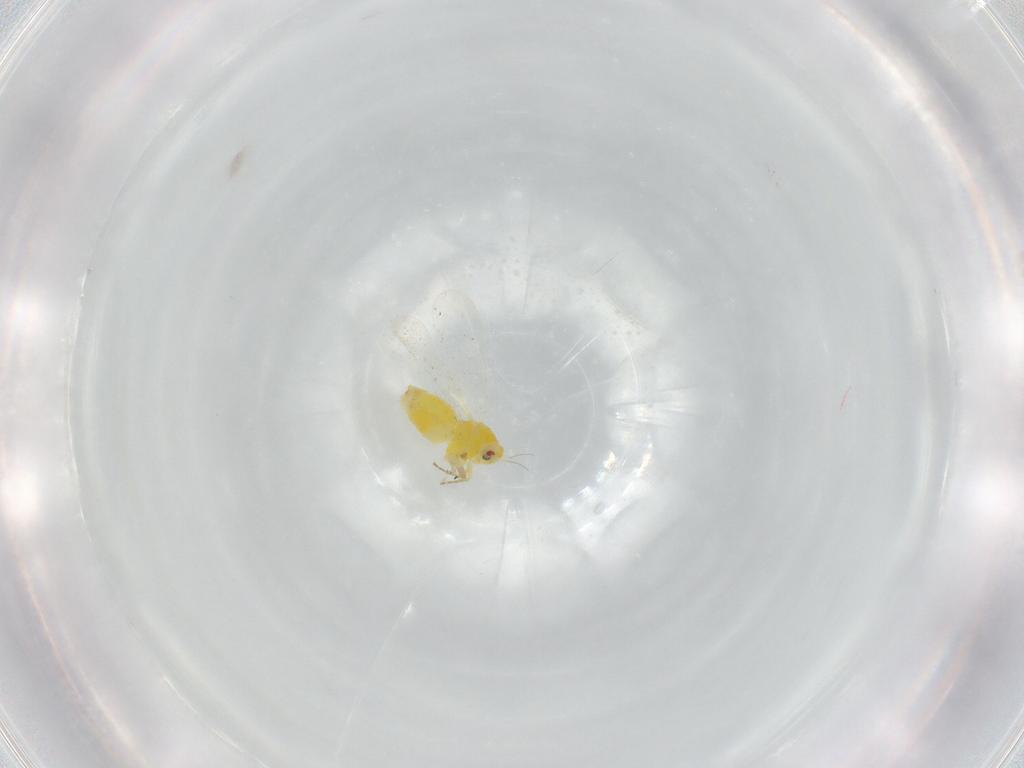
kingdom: Animalia
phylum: Arthropoda
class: Insecta
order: Hemiptera
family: Aleyrodidae
